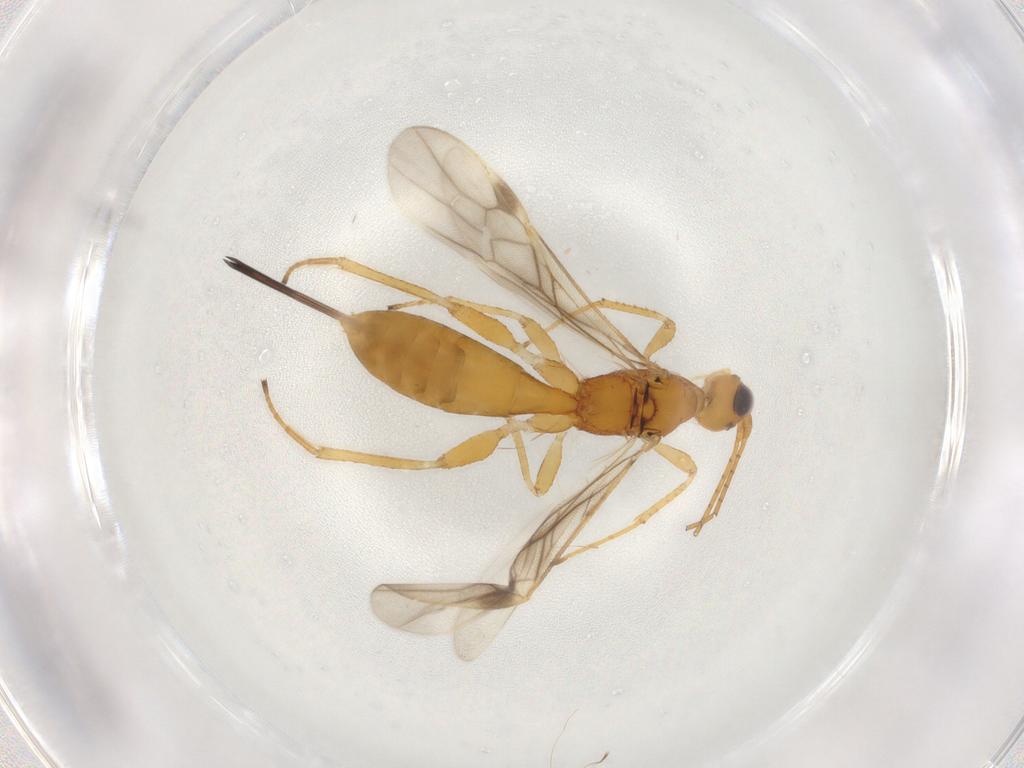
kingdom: Animalia
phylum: Arthropoda
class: Insecta
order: Hymenoptera
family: Braconidae
